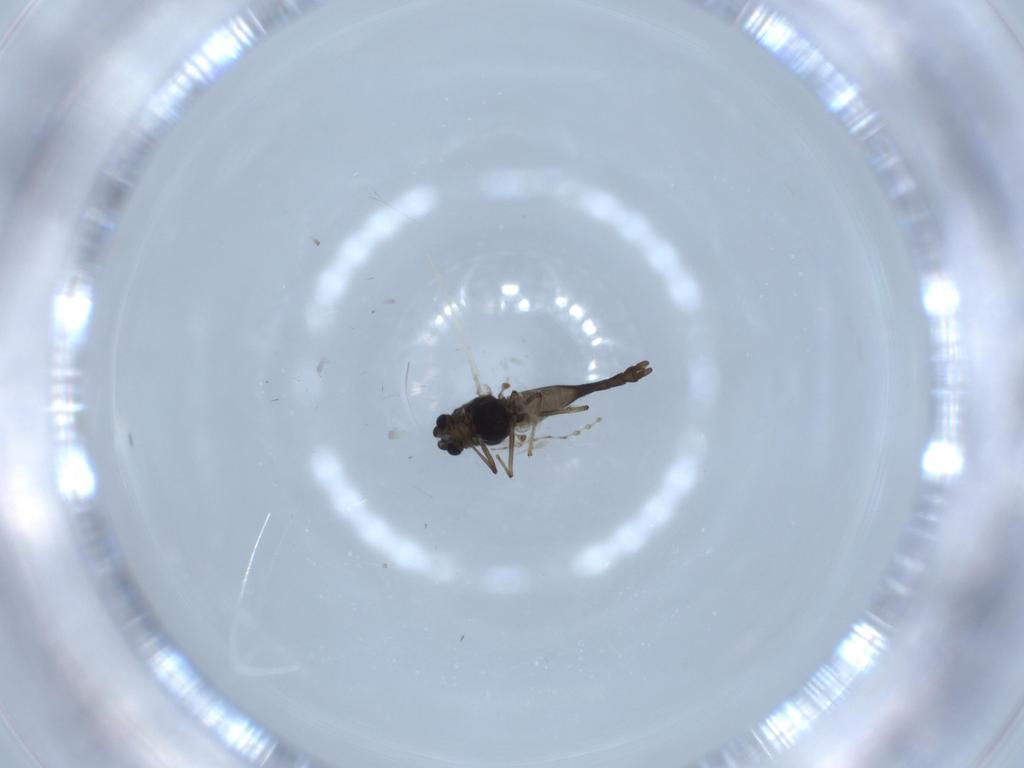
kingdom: Animalia
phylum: Arthropoda
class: Insecta
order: Diptera
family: Chironomidae
